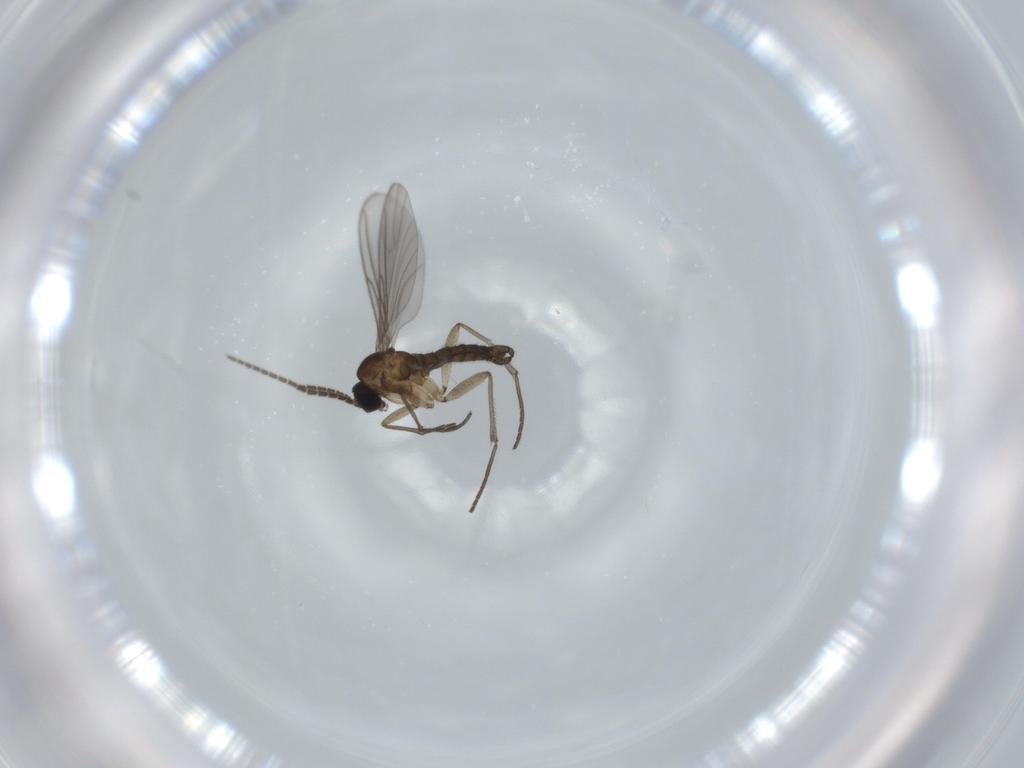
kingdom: Animalia
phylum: Arthropoda
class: Insecta
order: Diptera
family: Sciaridae
